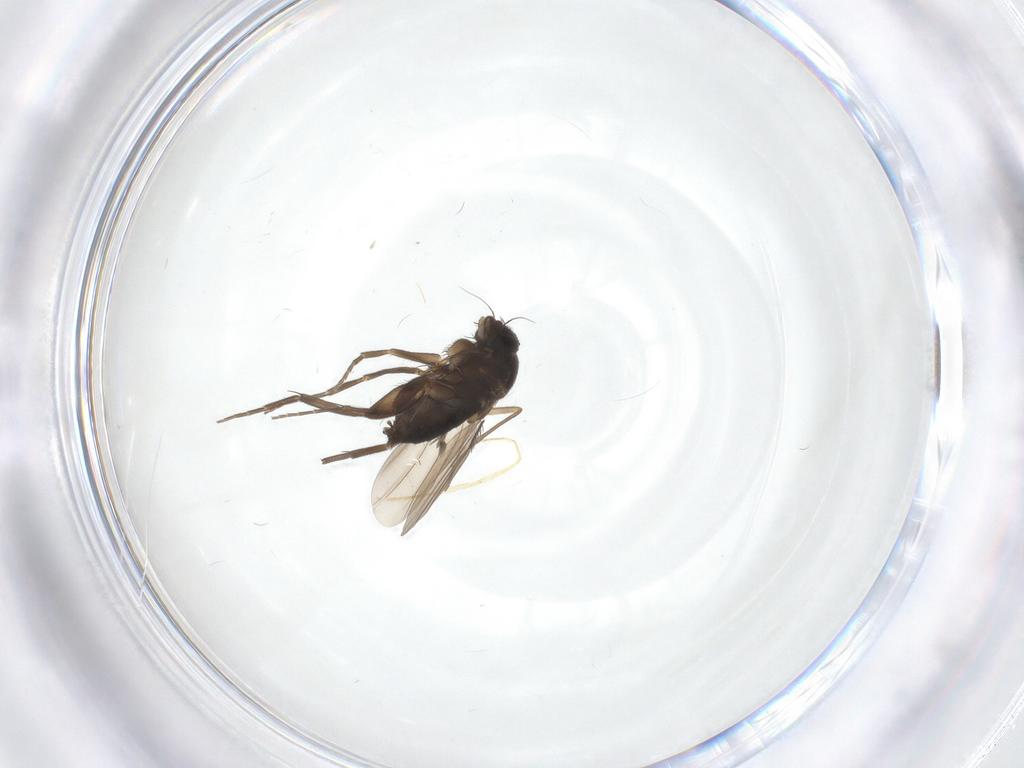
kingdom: Animalia
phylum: Arthropoda
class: Insecta
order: Diptera
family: Sciaridae
